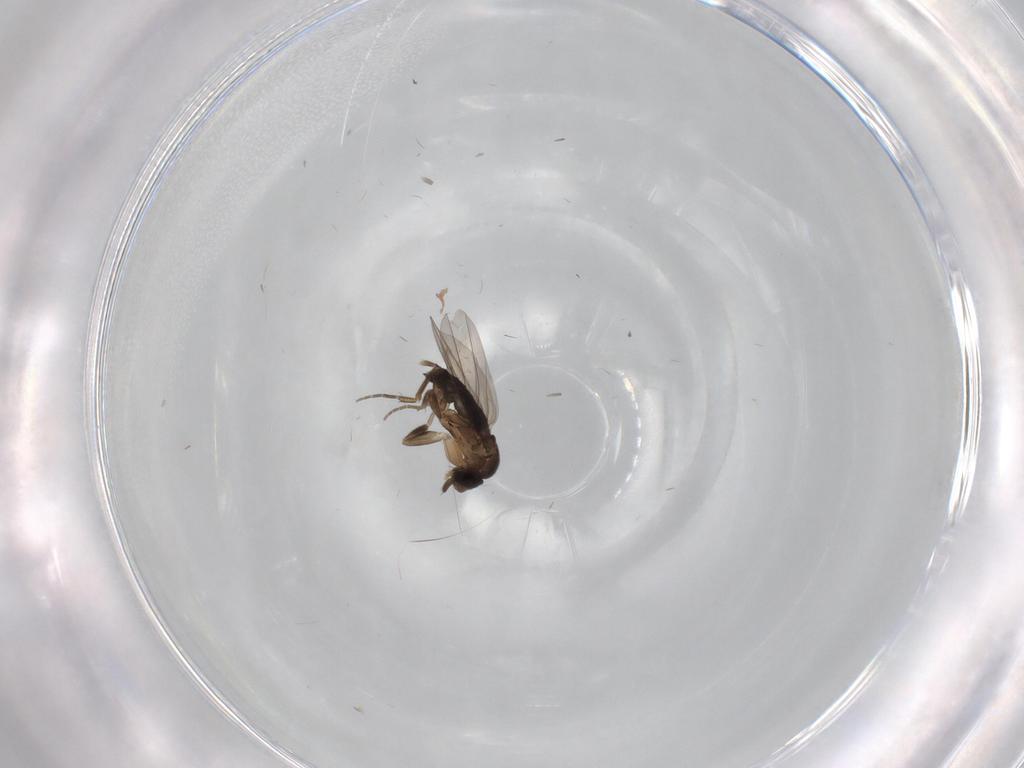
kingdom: Animalia
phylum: Arthropoda
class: Insecta
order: Diptera
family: Phoridae
